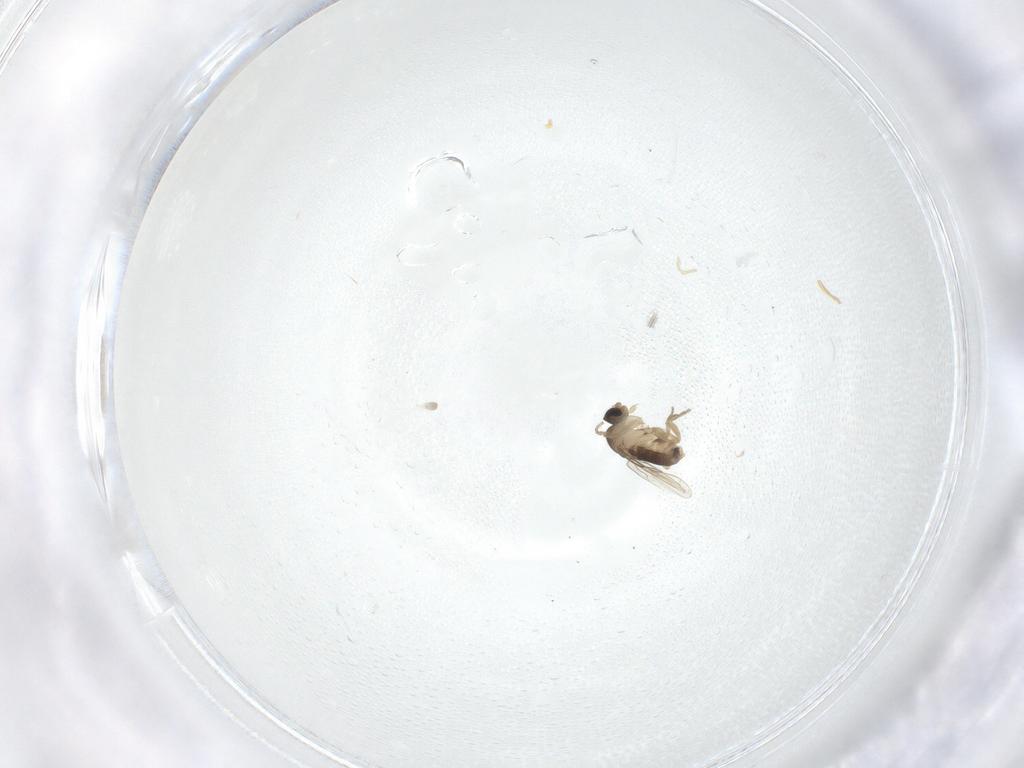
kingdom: Animalia
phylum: Arthropoda
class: Insecta
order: Diptera
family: Phoridae
